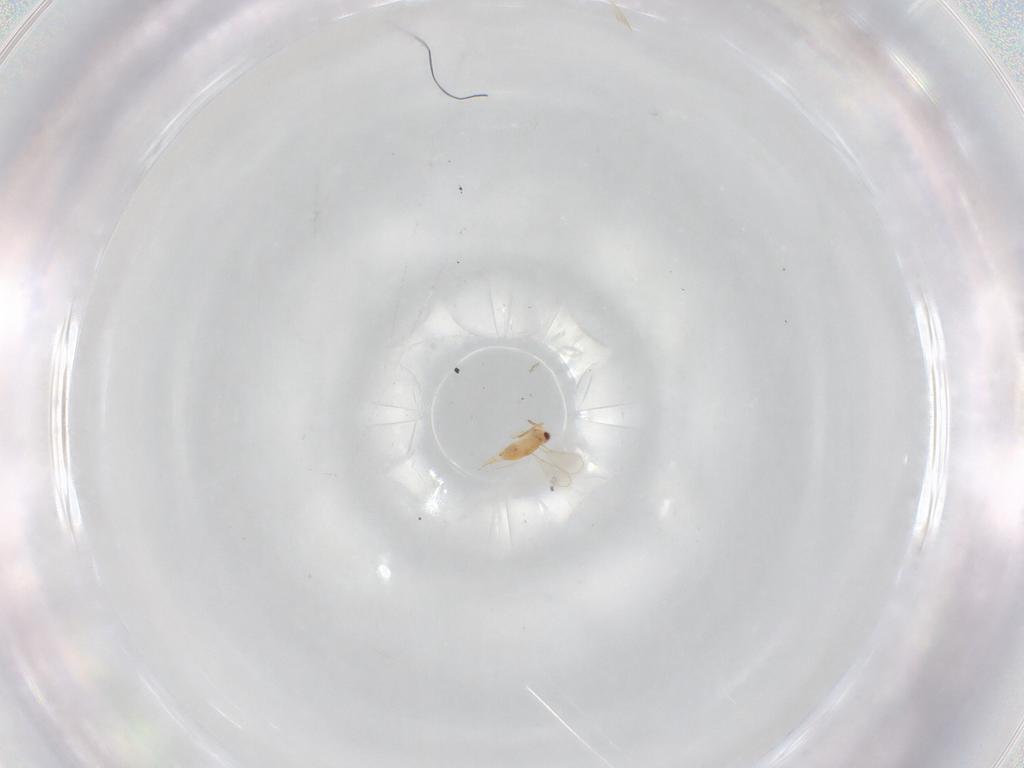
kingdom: Animalia
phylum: Arthropoda
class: Insecta
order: Hymenoptera
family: Aphelinidae
